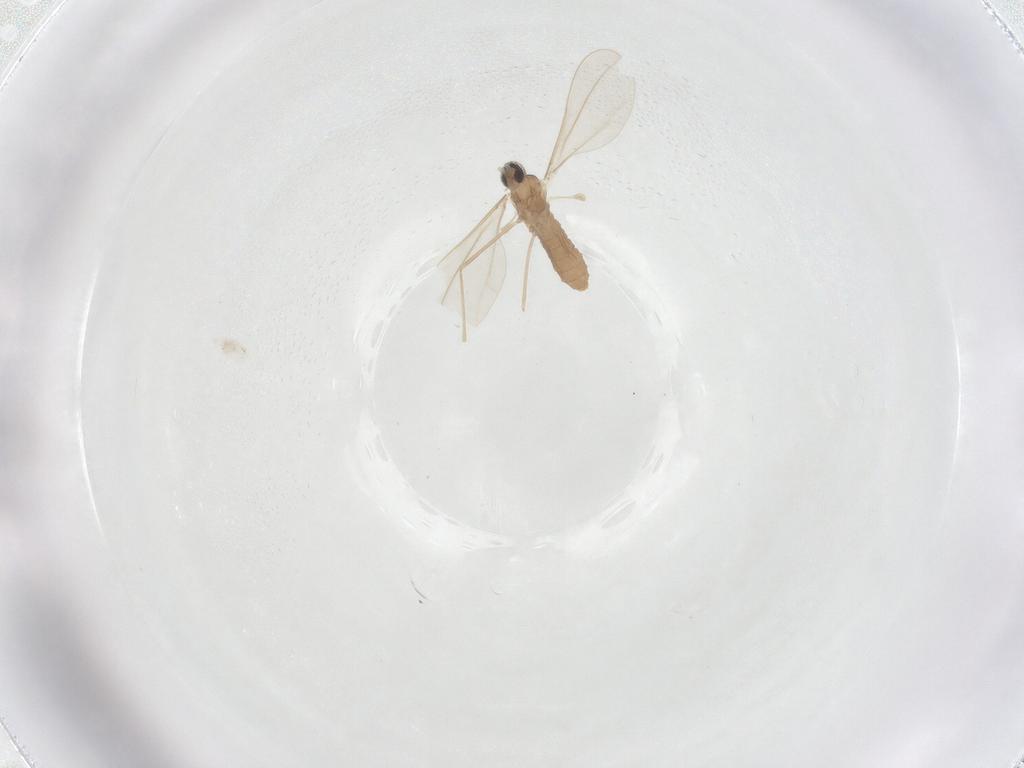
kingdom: Animalia
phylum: Arthropoda
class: Insecta
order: Diptera
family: Cecidomyiidae
